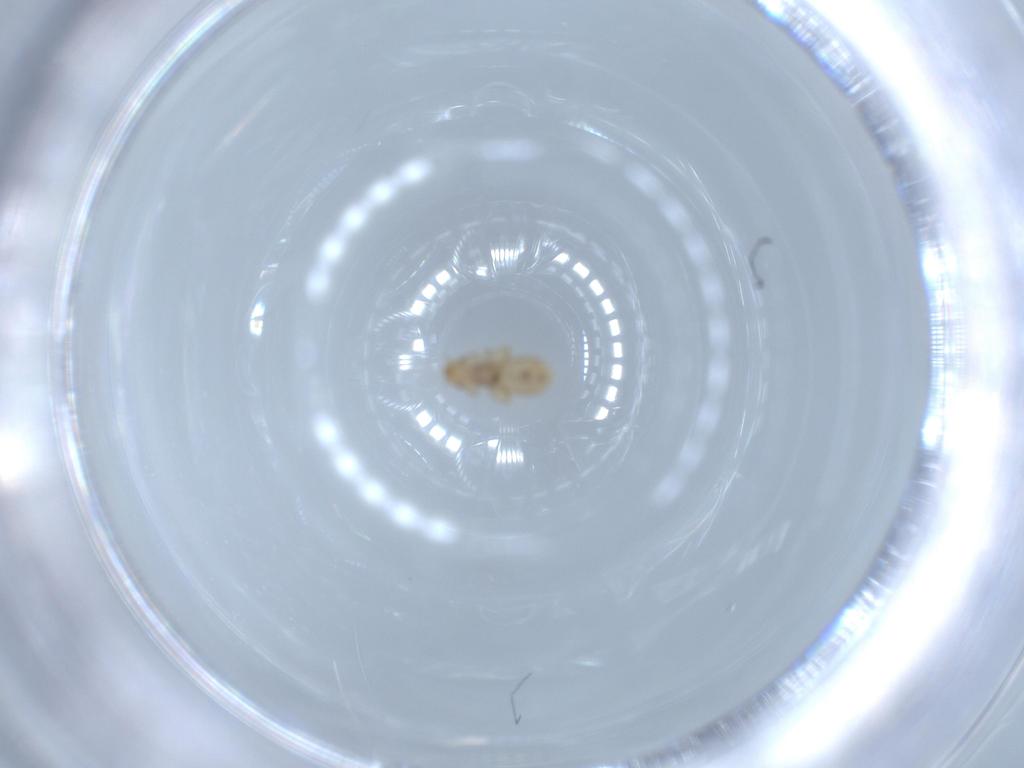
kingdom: Animalia
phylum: Arthropoda
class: Insecta
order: Psocodea
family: Liposcelididae
